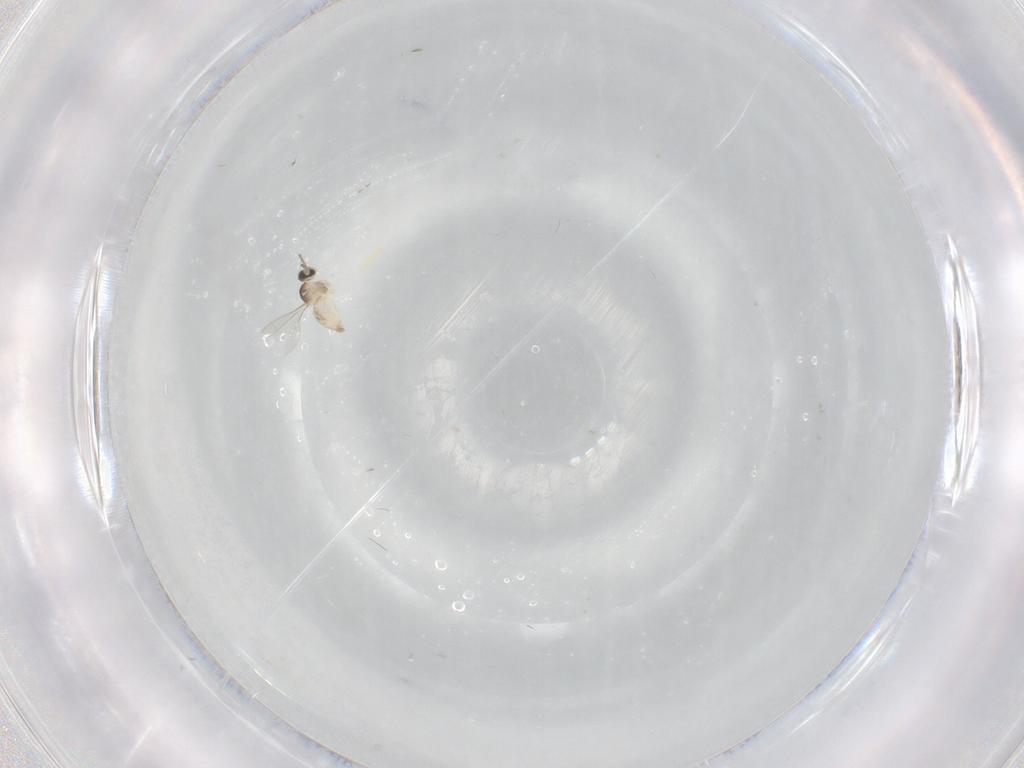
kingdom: Animalia
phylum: Arthropoda
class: Insecta
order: Diptera
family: Cecidomyiidae
